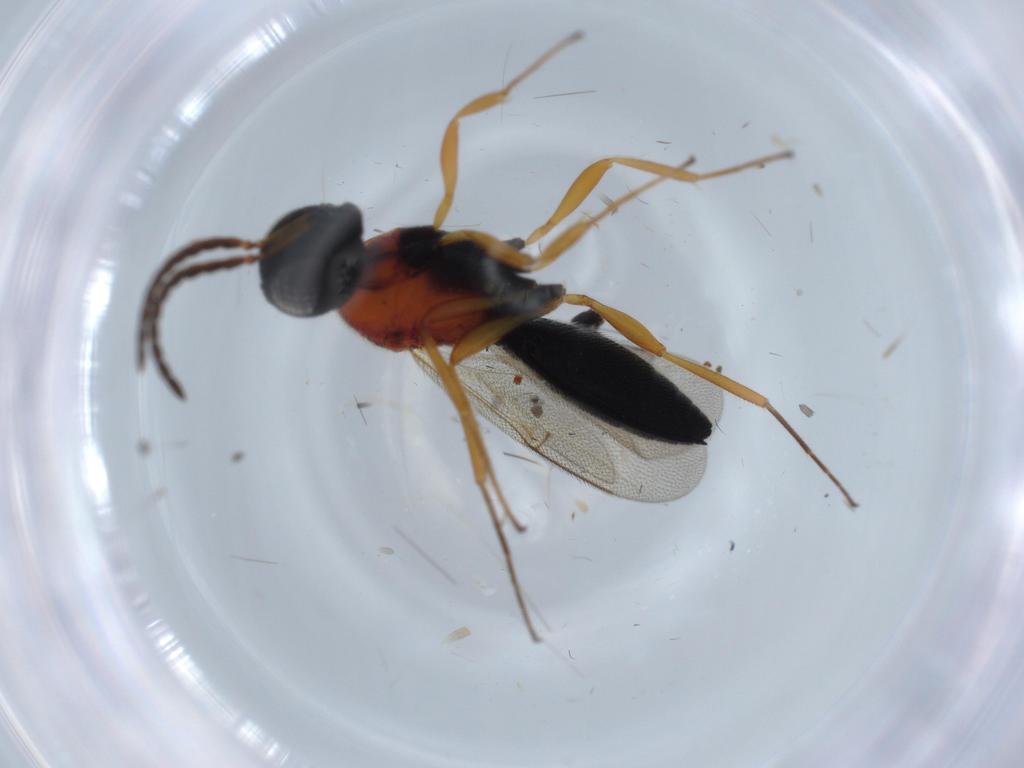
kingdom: Animalia
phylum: Arthropoda
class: Insecta
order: Hymenoptera
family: Scelionidae
